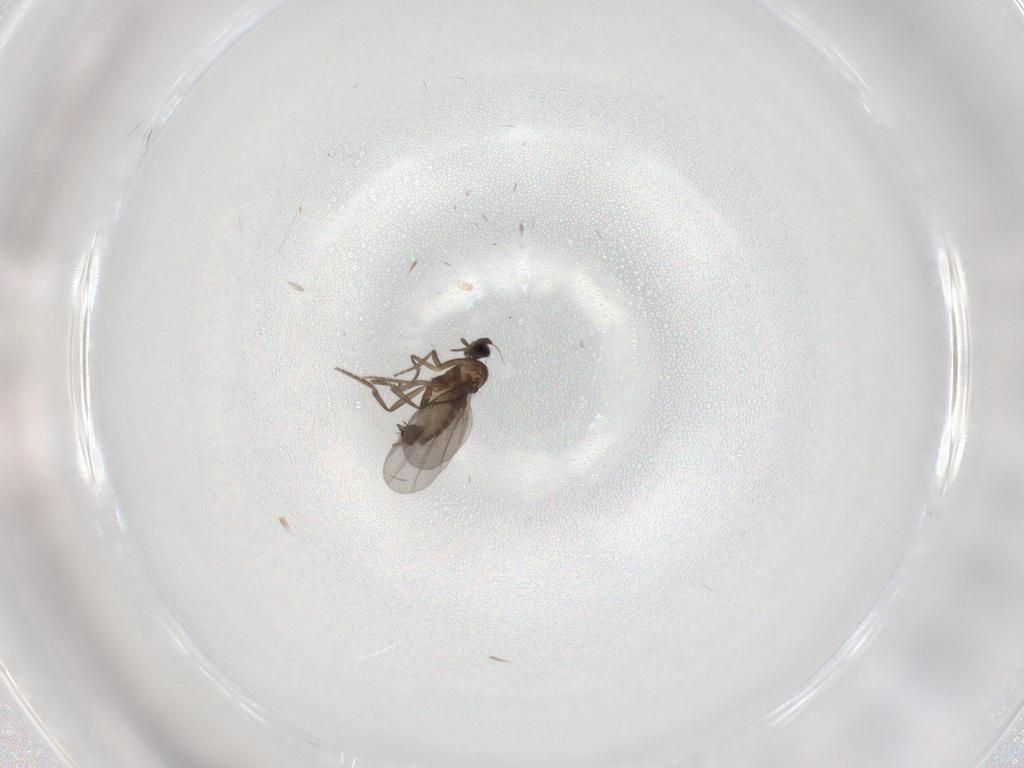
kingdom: Animalia
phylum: Arthropoda
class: Insecta
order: Diptera
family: Phoridae
